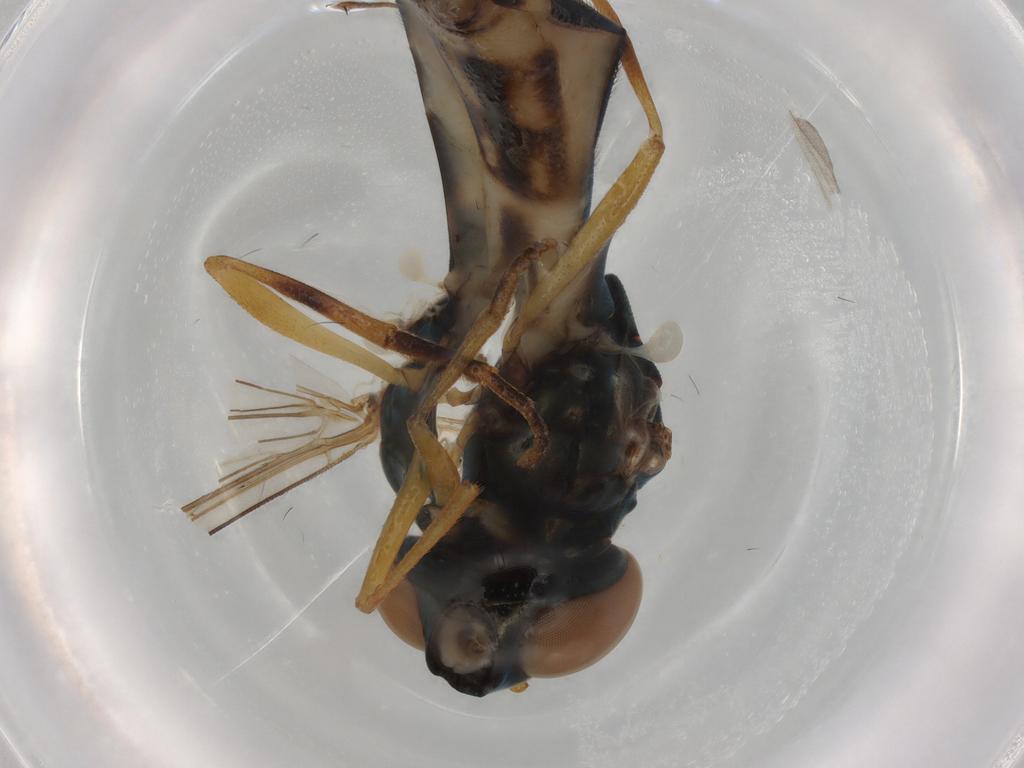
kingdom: Animalia
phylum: Arthropoda
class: Insecta
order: Diptera
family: Syrphidae
